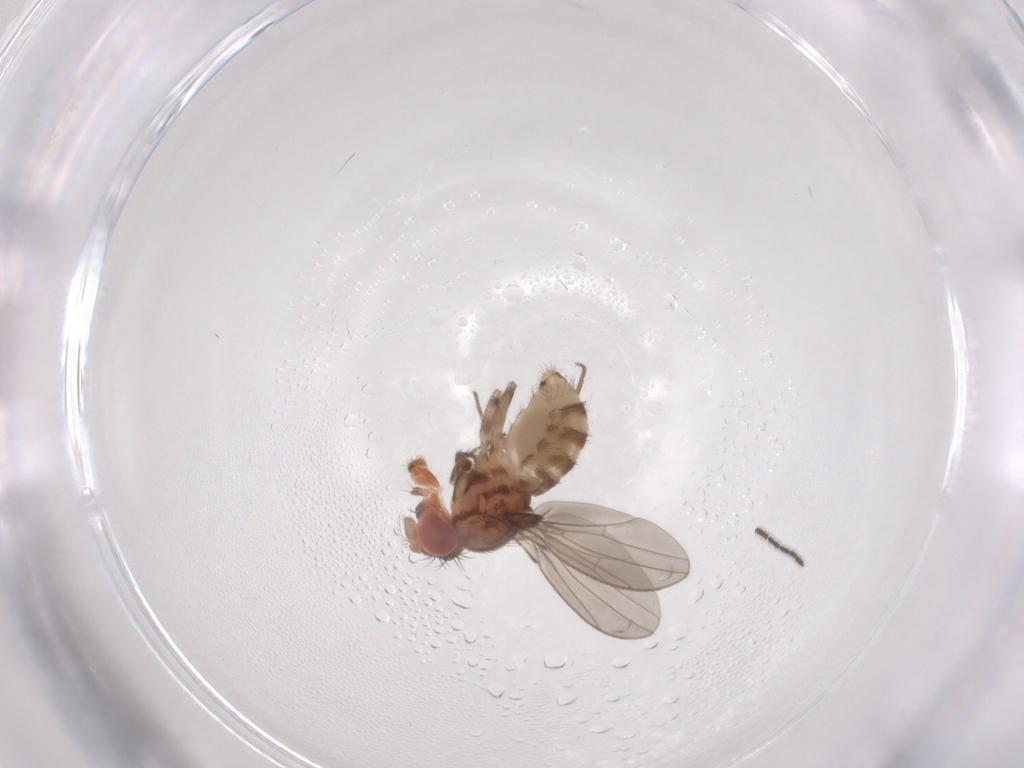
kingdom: Animalia
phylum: Arthropoda
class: Insecta
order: Diptera
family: Drosophilidae
